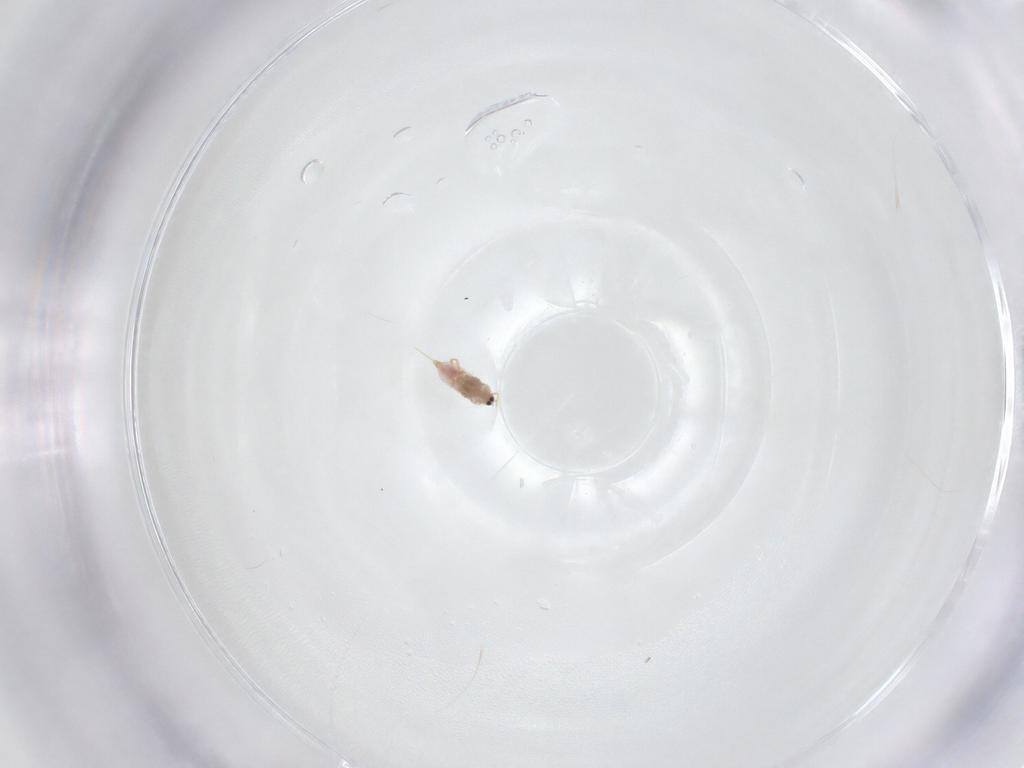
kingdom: Animalia
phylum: Arthropoda
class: Insecta
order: Hemiptera
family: Diaspididae
